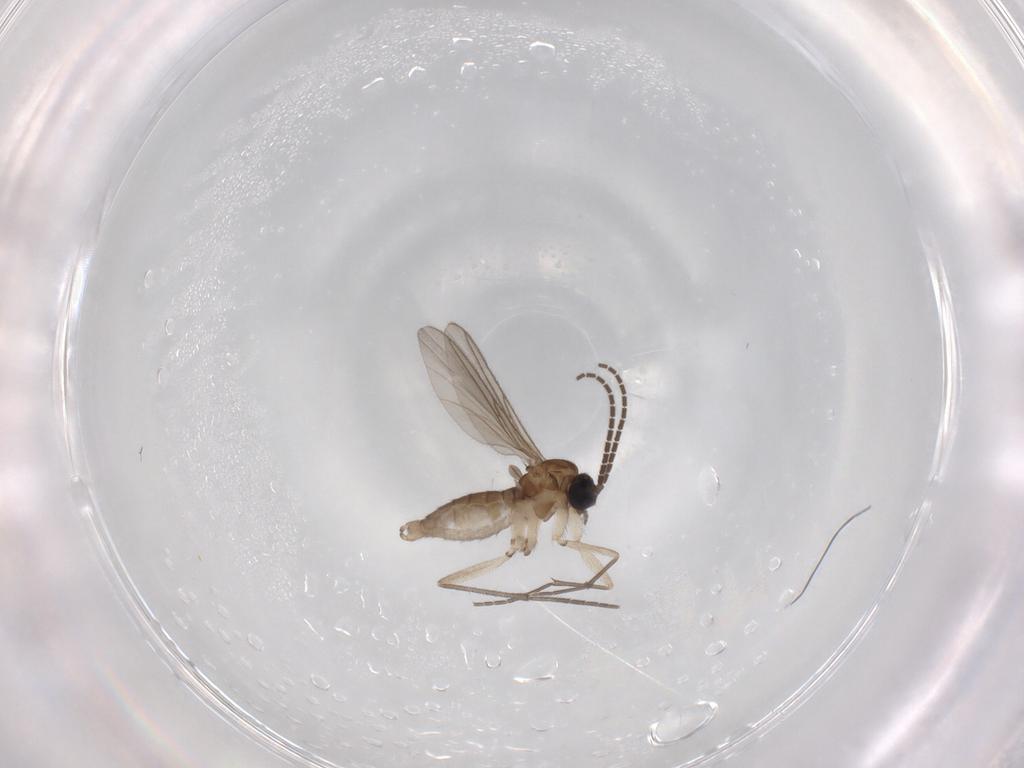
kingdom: Animalia
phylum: Arthropoda
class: Insecta
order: Diptera
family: Sciaridae
